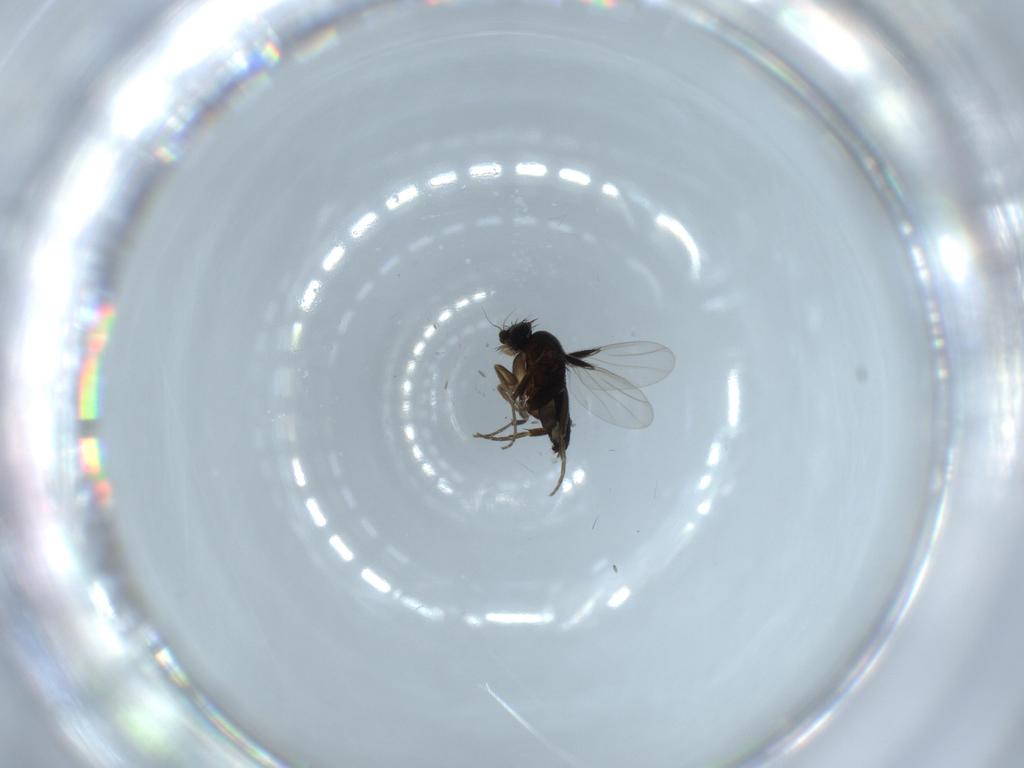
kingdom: Animalia
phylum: Arthropoda
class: Insecta
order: Diptera
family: Phoridae
